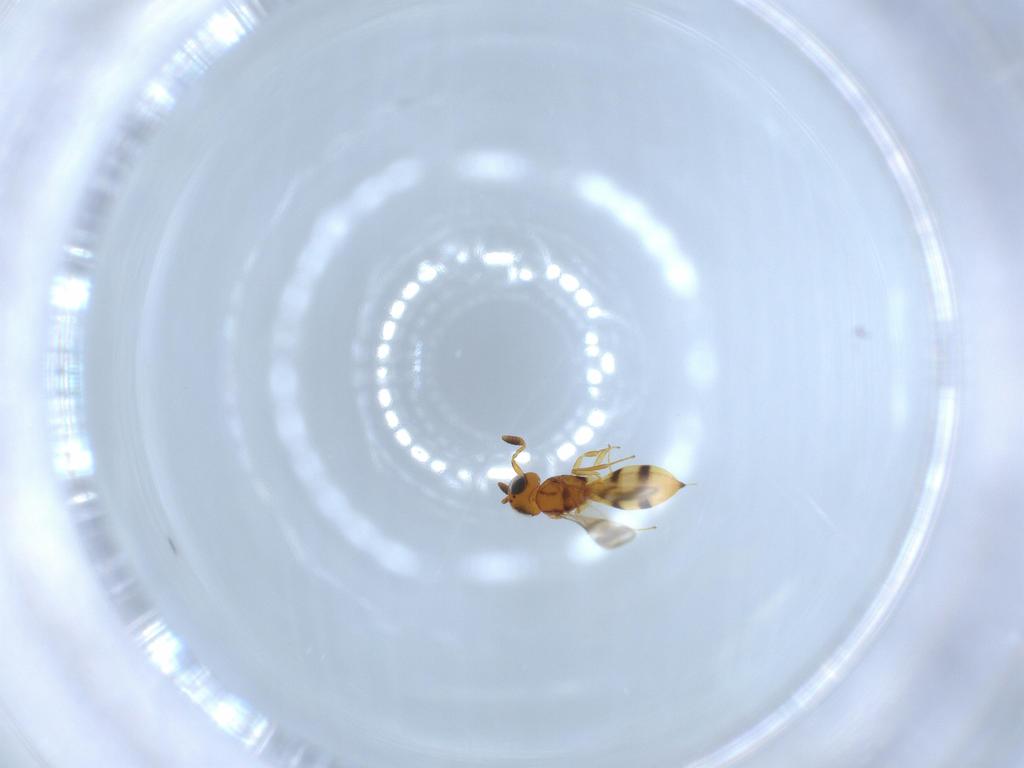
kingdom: Animalia
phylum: Arthropoda
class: Insecta
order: Hymenoptera
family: Scelionidae
